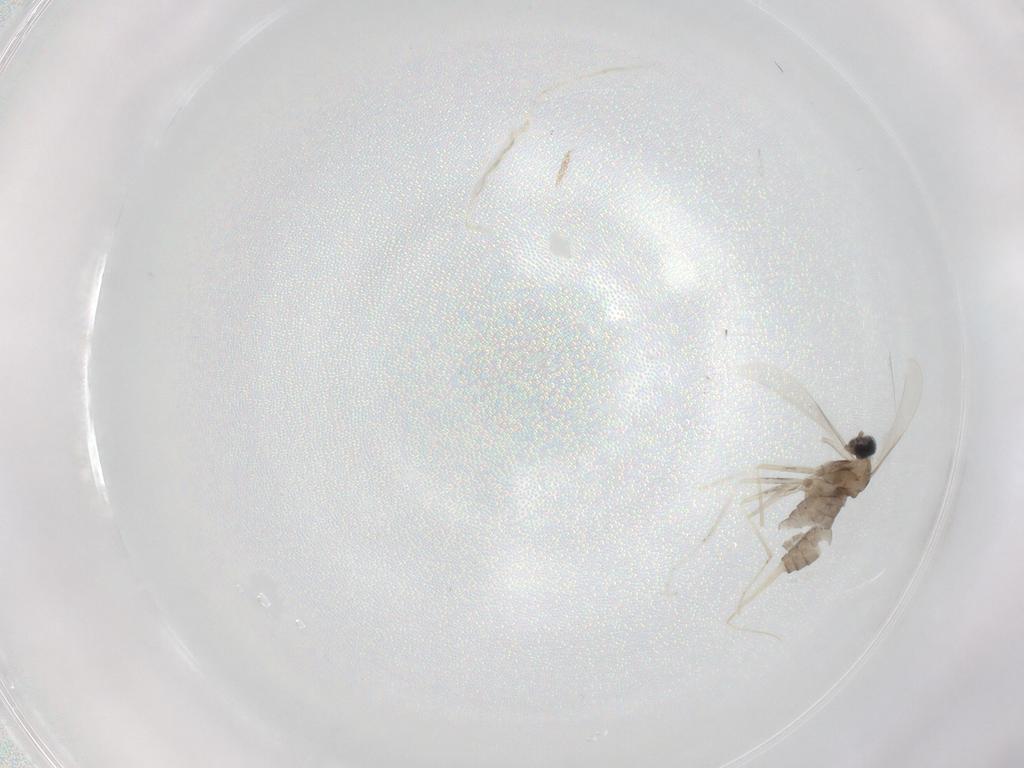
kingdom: Animalia
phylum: Arthropoda
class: Insecta
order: Diptera
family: Cecidomyiidae
